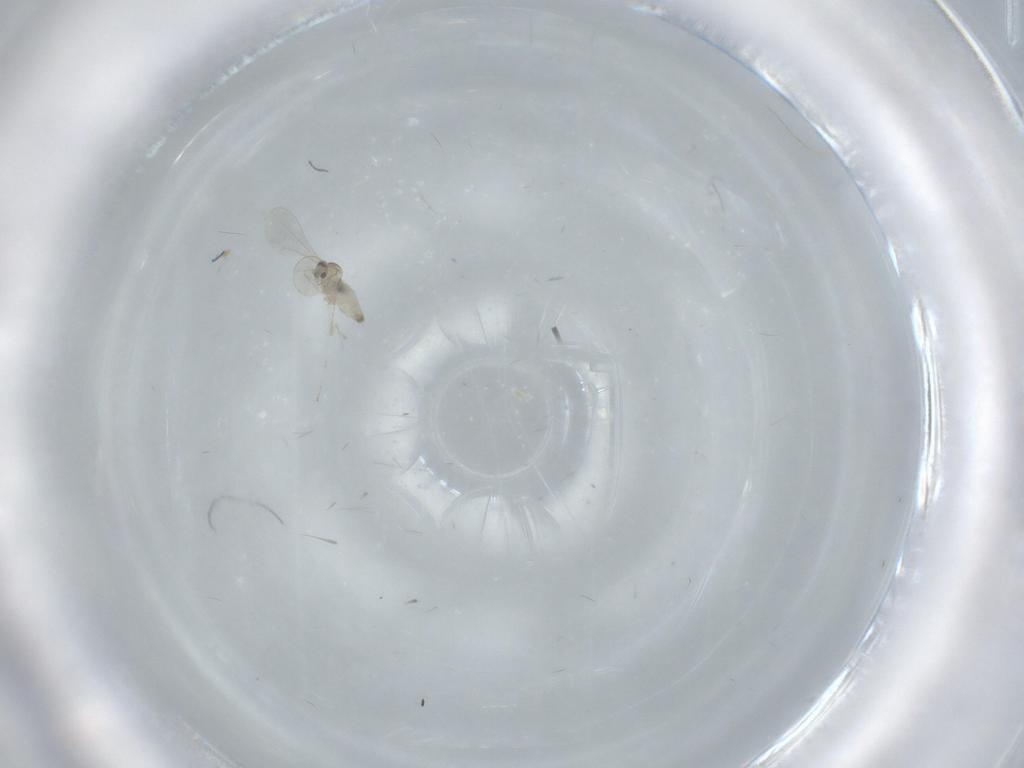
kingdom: Animalia
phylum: Arthropoda
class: Insecta
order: Diptera
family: Cecidomyiidae
